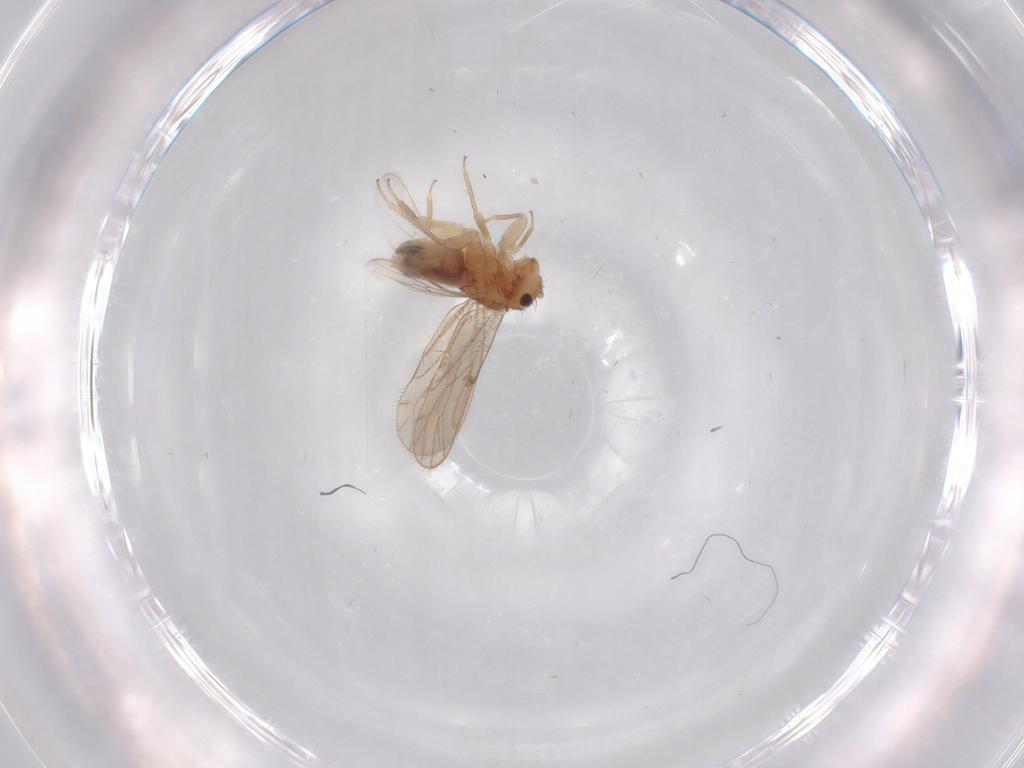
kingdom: Animalia
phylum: Arthropoda
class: Insecta
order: Psocodea
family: Ectopsocidae
